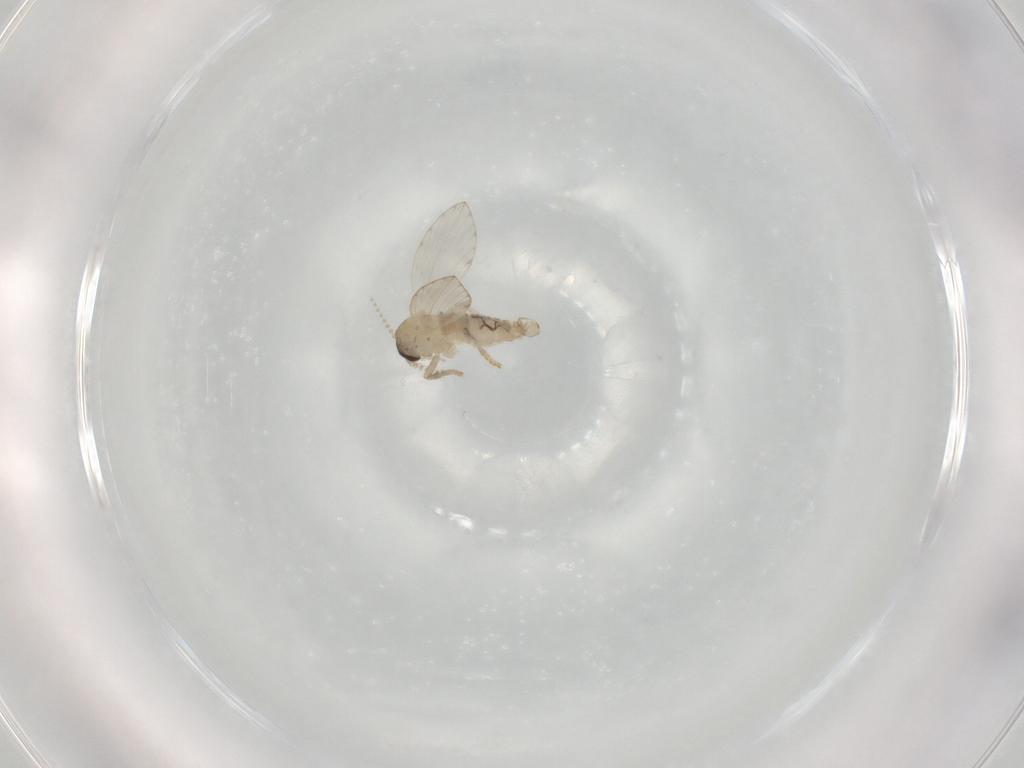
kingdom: Animalia
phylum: Arthropoda
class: Insecta
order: Diptera
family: Psychodidae
